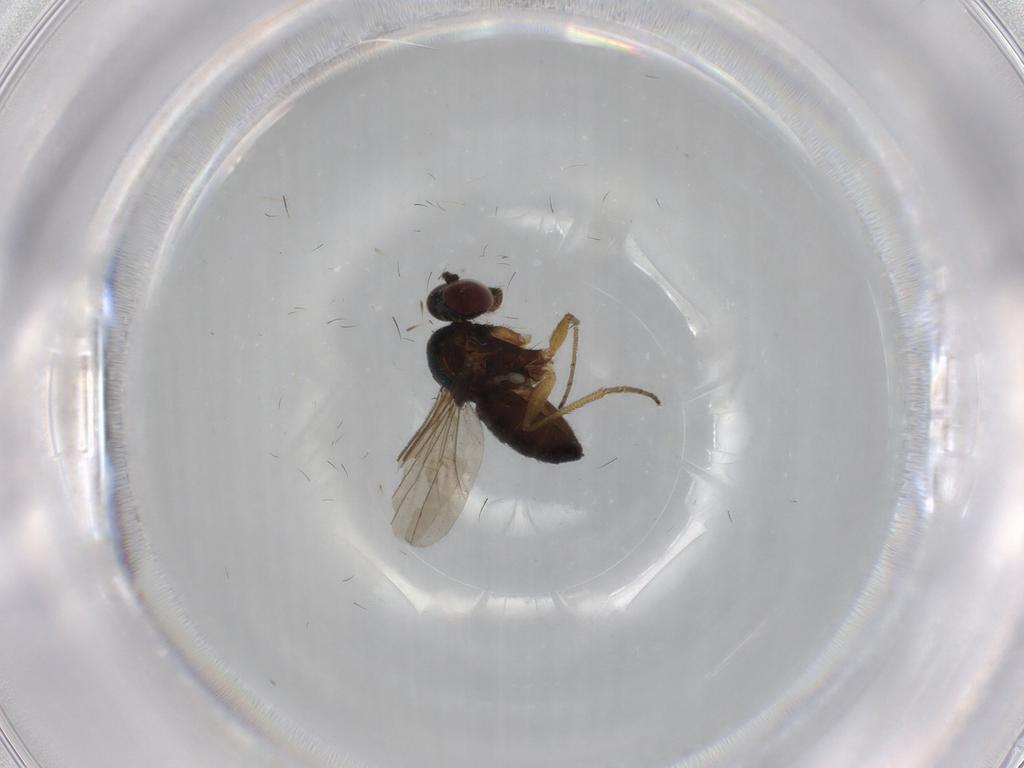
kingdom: Animalia
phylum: Arthropoda
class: Insecta
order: Diptera
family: Dolichopodidae
